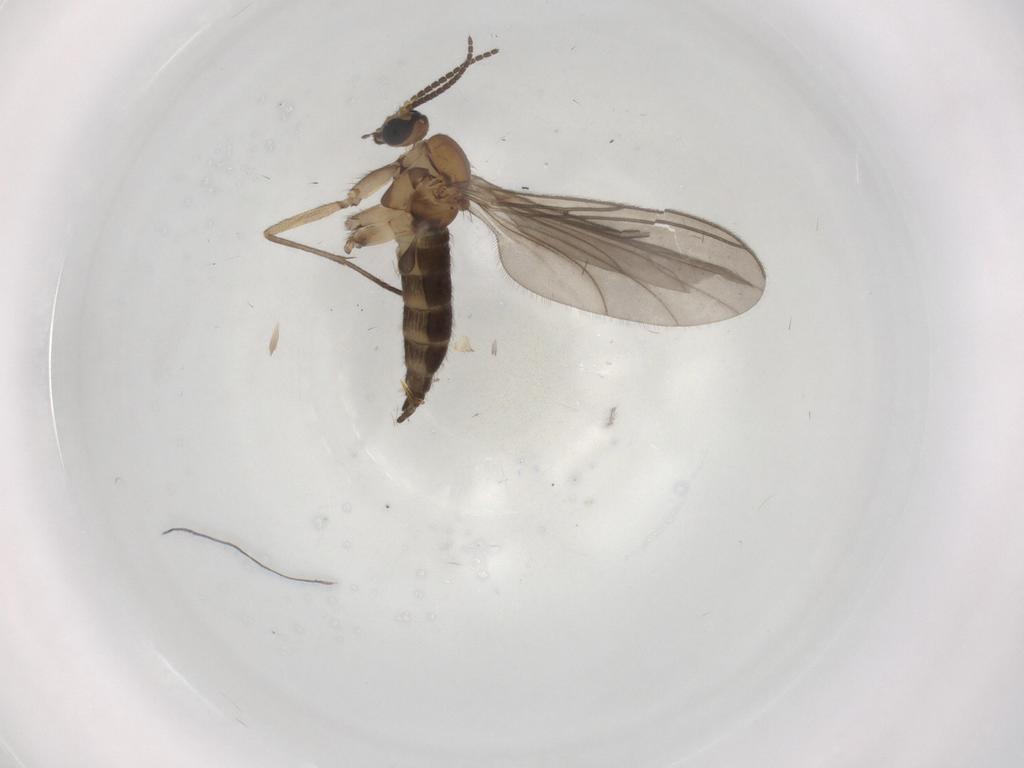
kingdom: Animalia
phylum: Arthropoda
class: Insecta
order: Diptera
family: Sciaridae
